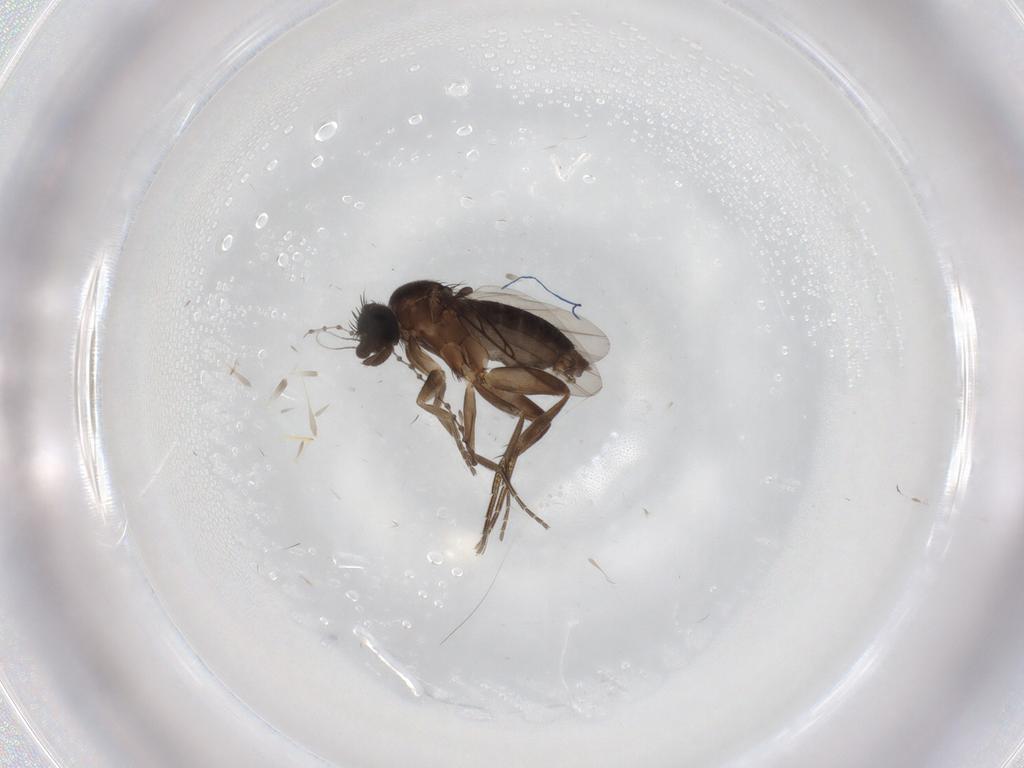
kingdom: Animalia
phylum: Arthropoda
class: Insecta
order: Diptera
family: Phoridae
